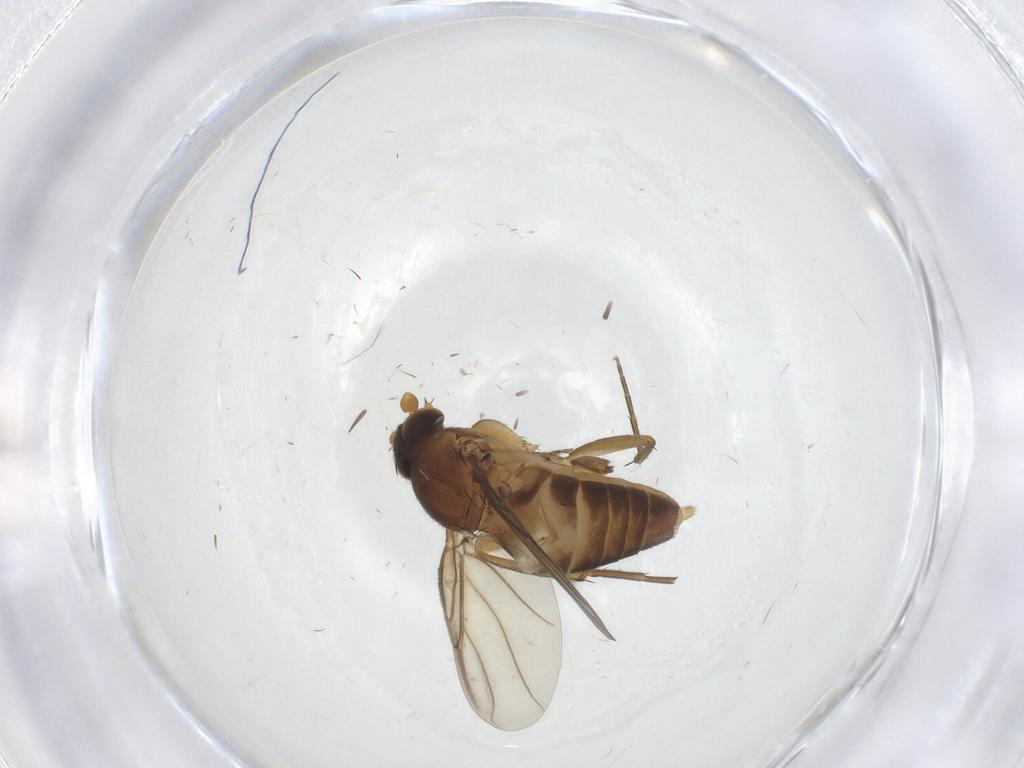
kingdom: Animalia
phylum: Arthropoda
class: Insecta
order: Diptera
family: Phoridae
